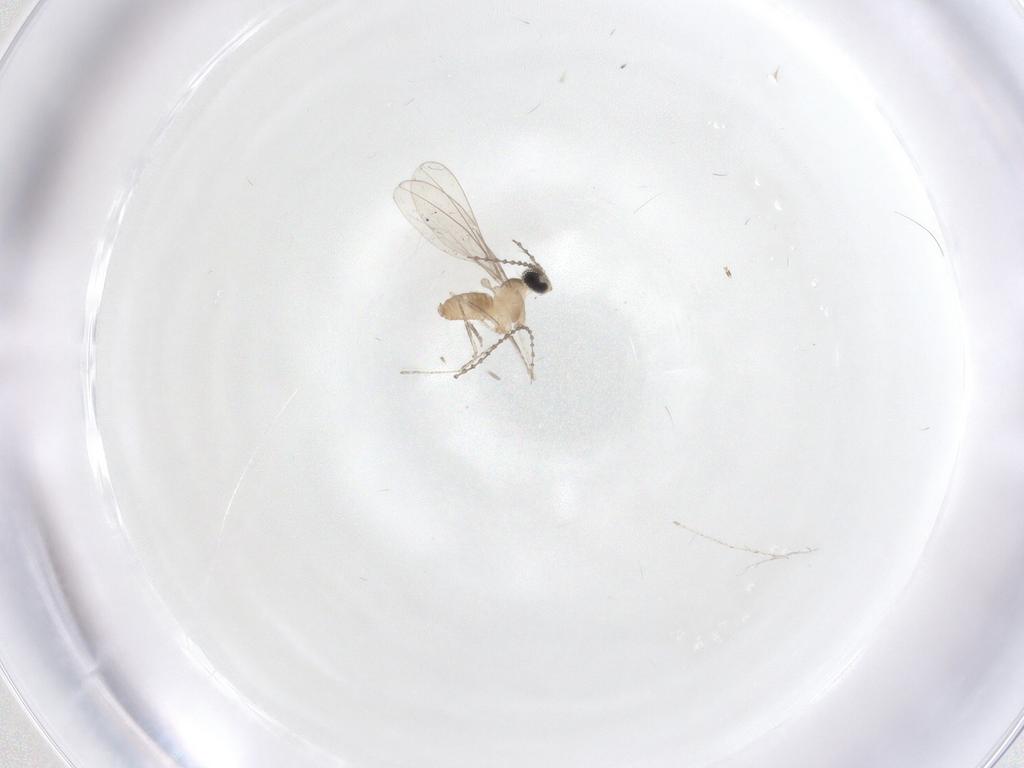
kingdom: Animalia
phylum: Arthropoda
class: Insecta
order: Diptera
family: Cecidomyiidae
